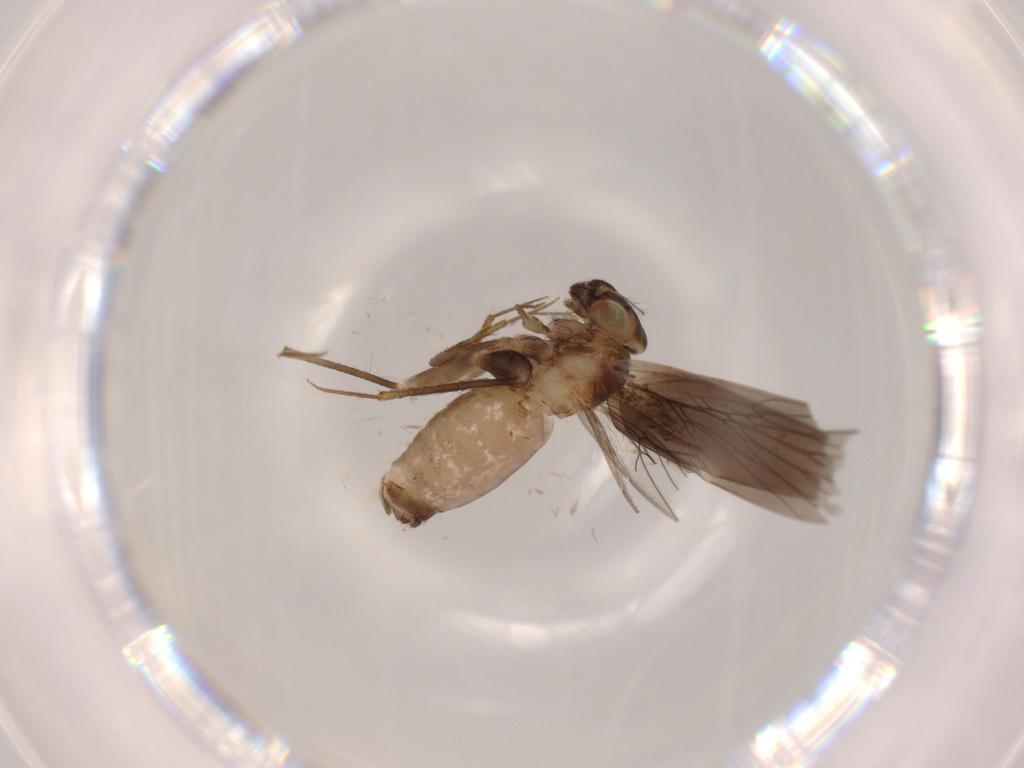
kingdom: Animalia
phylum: Arthropoda
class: Insecta
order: Psocodea
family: Lepidopsocidae
